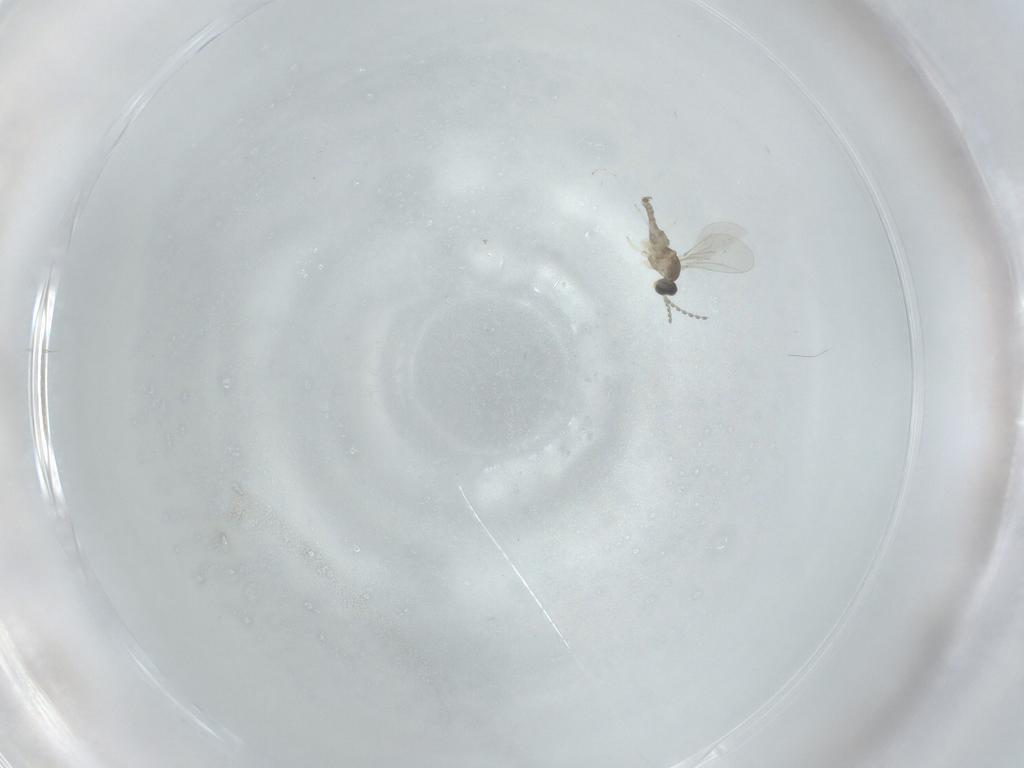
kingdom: Animalia
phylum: Arthropoda
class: Insecta
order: Diptera
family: Cecidomyiidae
